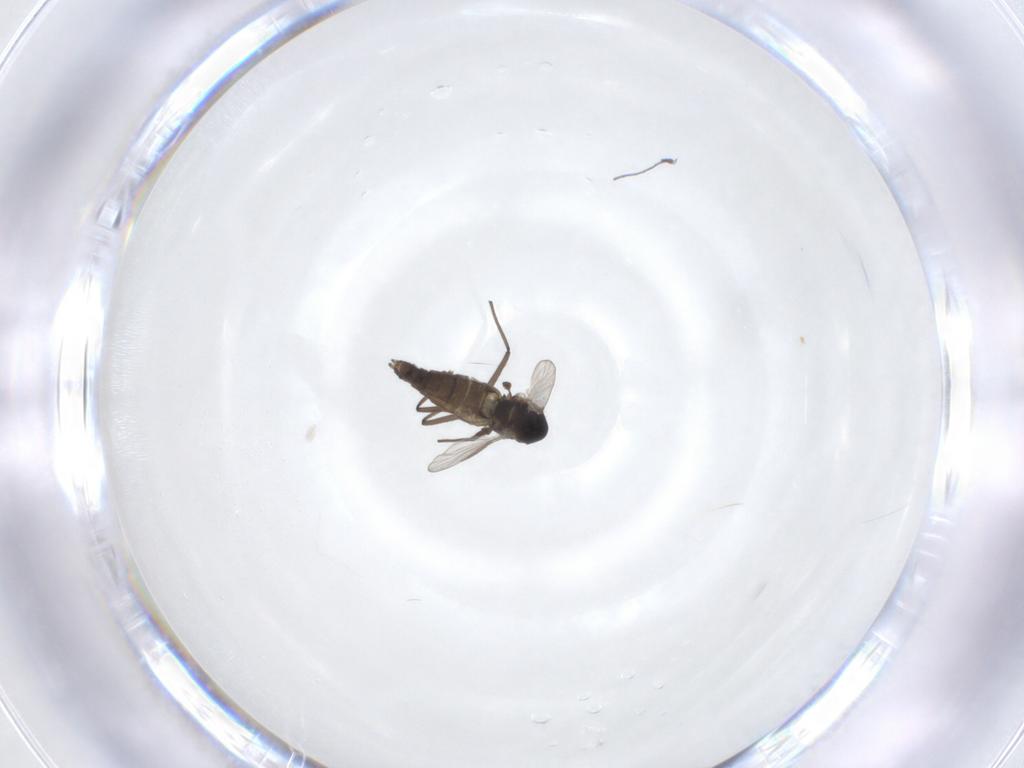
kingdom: Animalia
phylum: Arthropoda
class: Insecta
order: Diptera
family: Chironomidae
